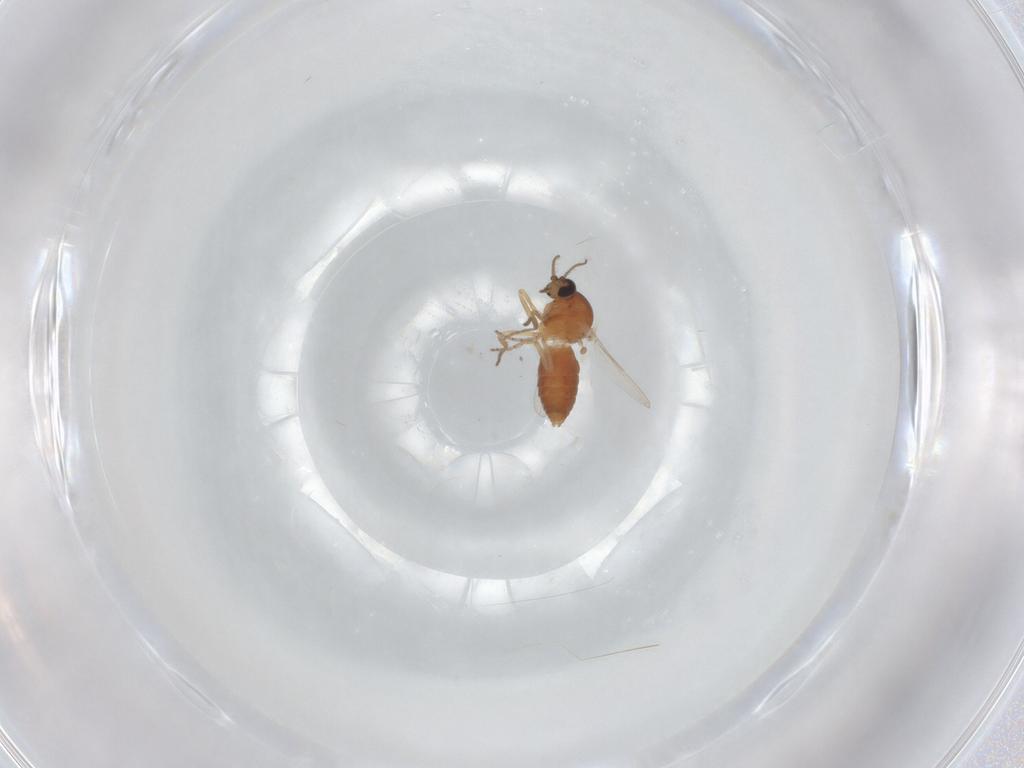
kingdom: Animalia
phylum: Arthropoda
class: Insecta
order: Diptera
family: Ceratopogonidae
